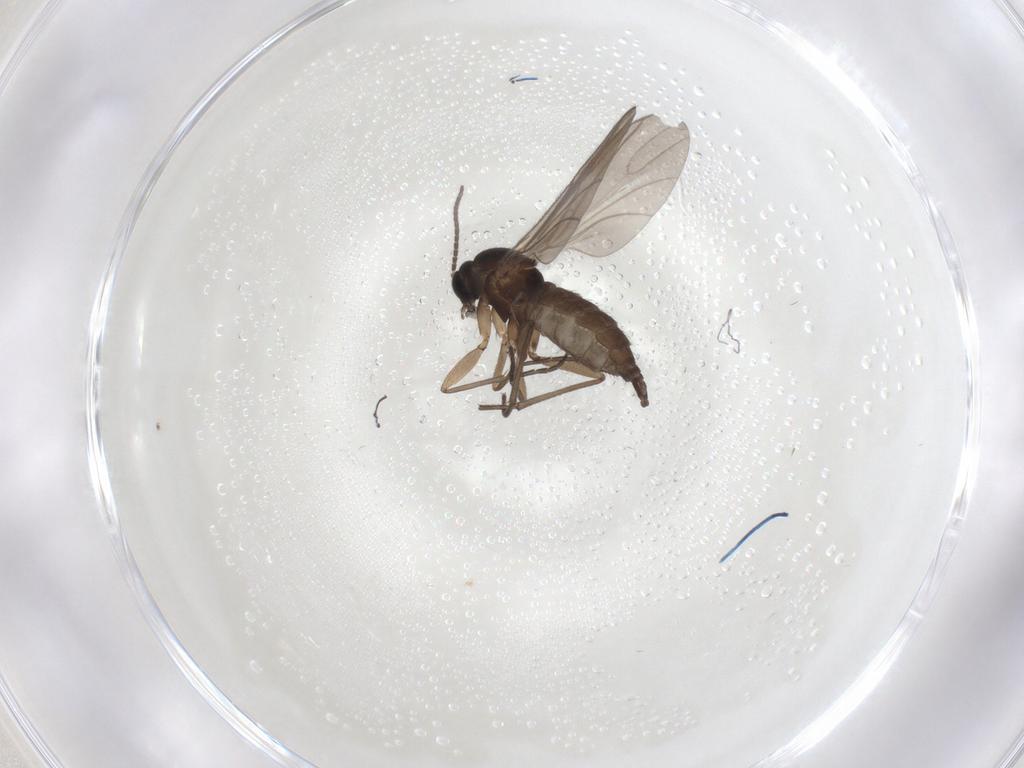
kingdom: Animalia
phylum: Arthropoda
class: Insecta
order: Diptera
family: Sciaridae
